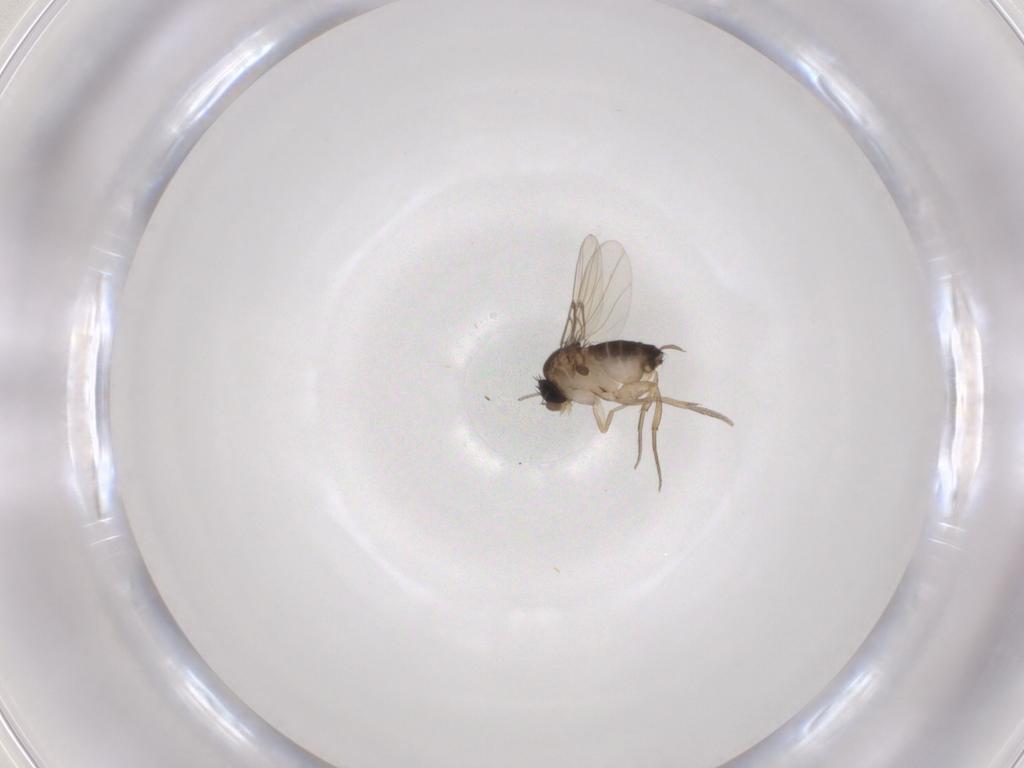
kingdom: Animalia
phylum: Arthropoda
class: Insecta
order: Diptera
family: Phoridae
